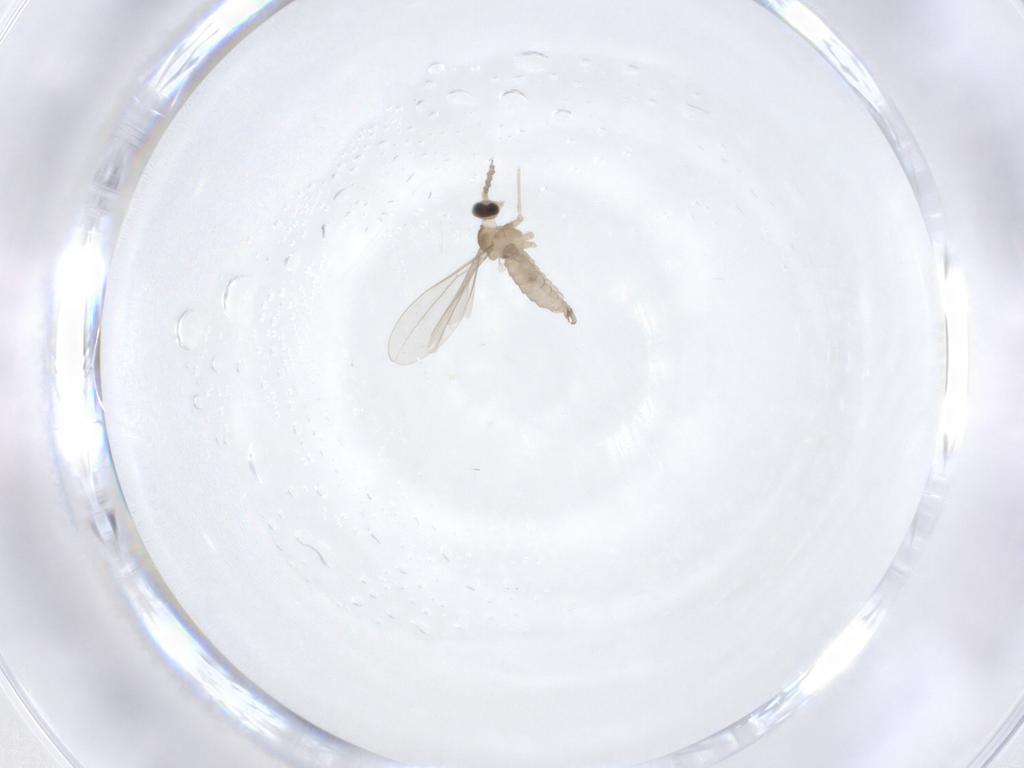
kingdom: Animalia
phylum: Arthropoda
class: Insecta
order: Diptera
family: Cecidomyiidae
